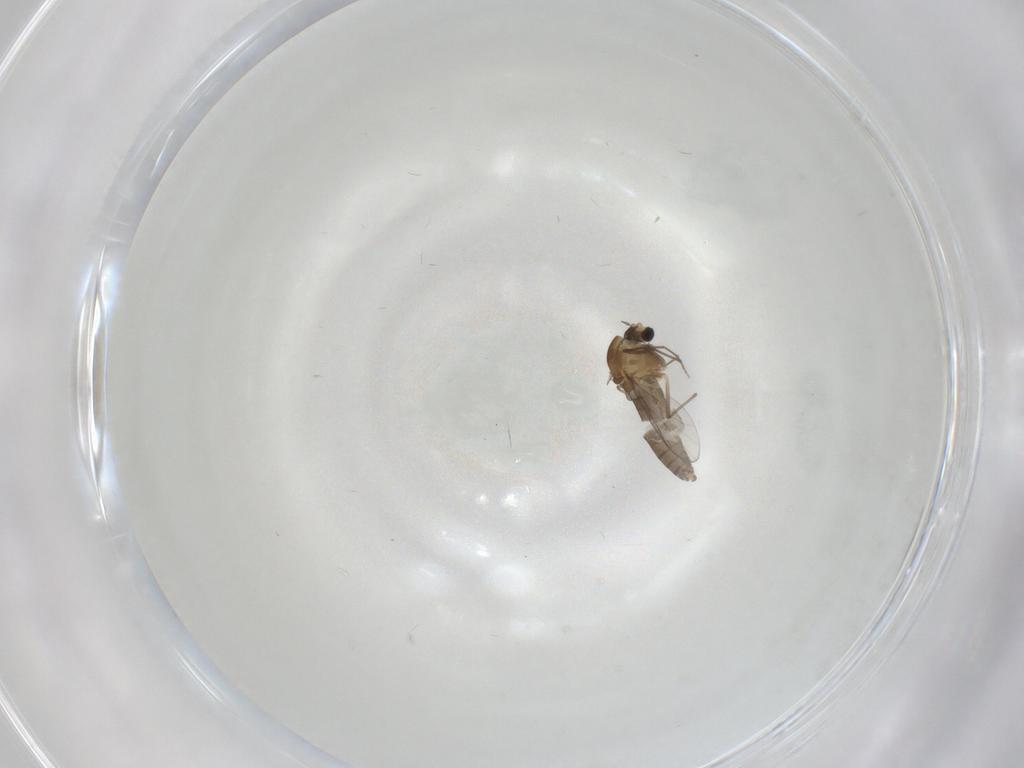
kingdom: Animalia
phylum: Arthropoda
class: Insecta
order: Diptera
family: Chironomidae
